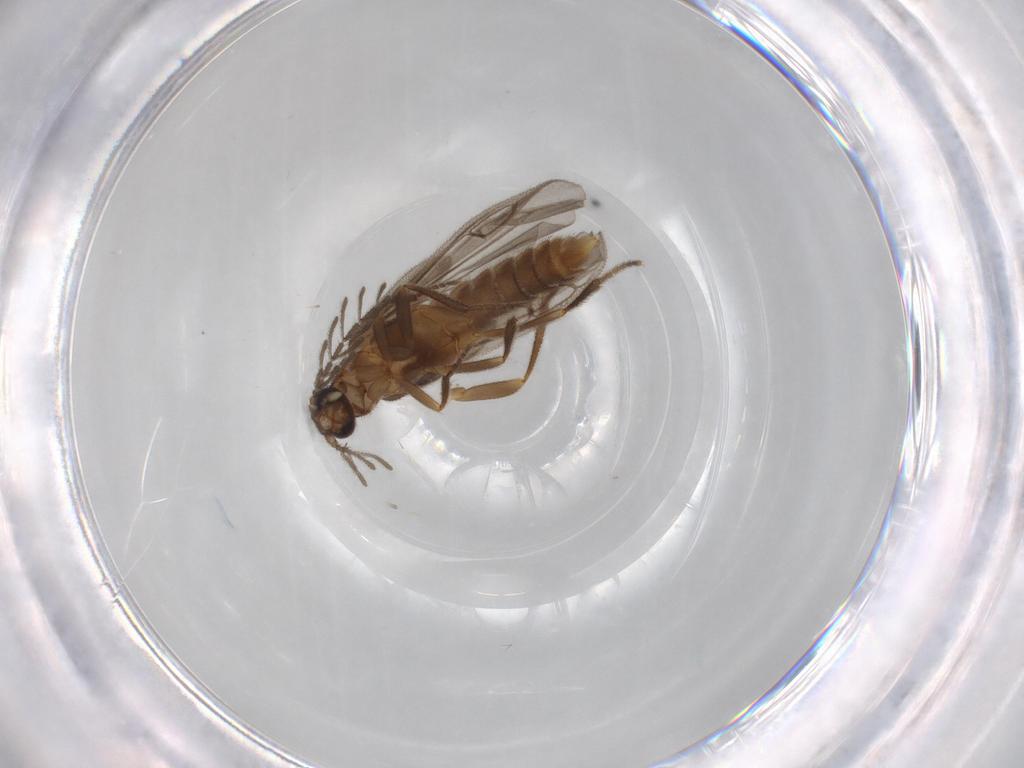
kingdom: Animalia
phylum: Arthropoda
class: Insecta
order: Coleoptera
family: Chrysomelidae
